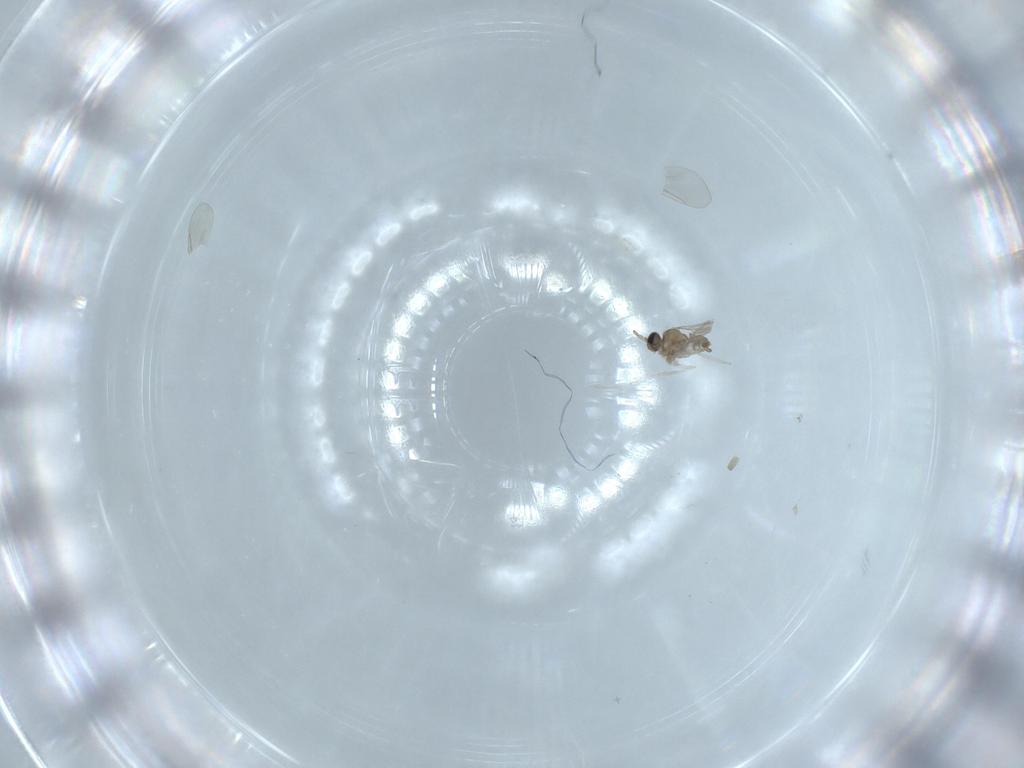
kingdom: Animalia
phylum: Arthropoda
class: Insecta
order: Diptera
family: Cecidomyiidae
